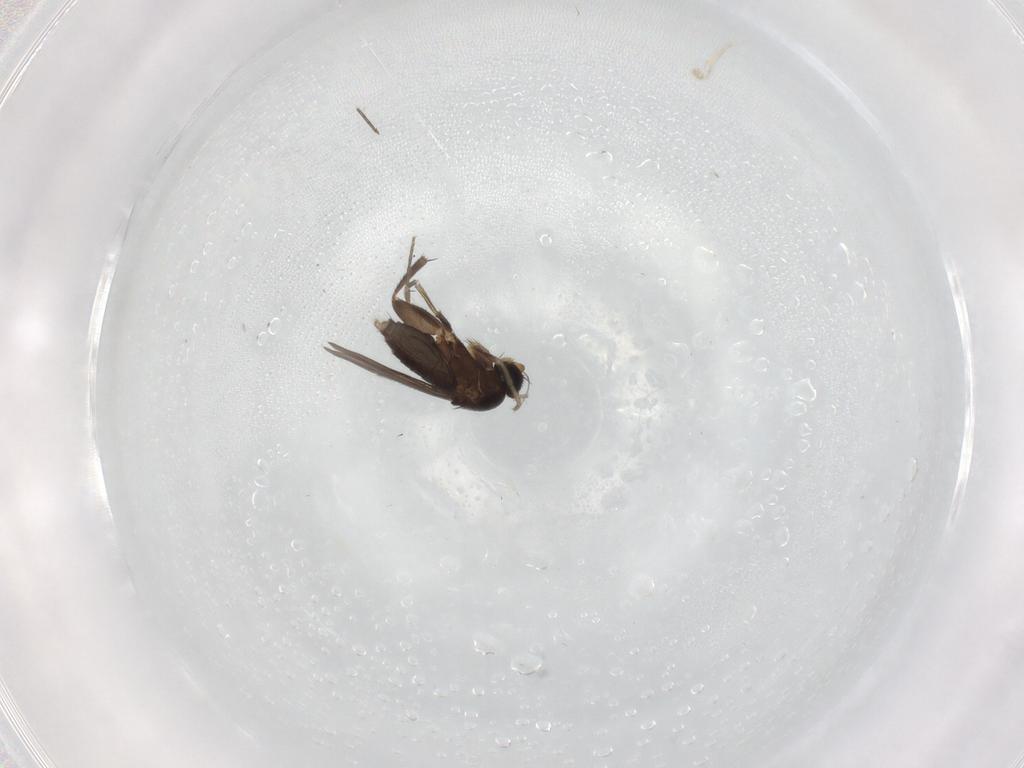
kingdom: Animalia
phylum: Arthropoda
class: Insecta
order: Diptera
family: Phoridae
